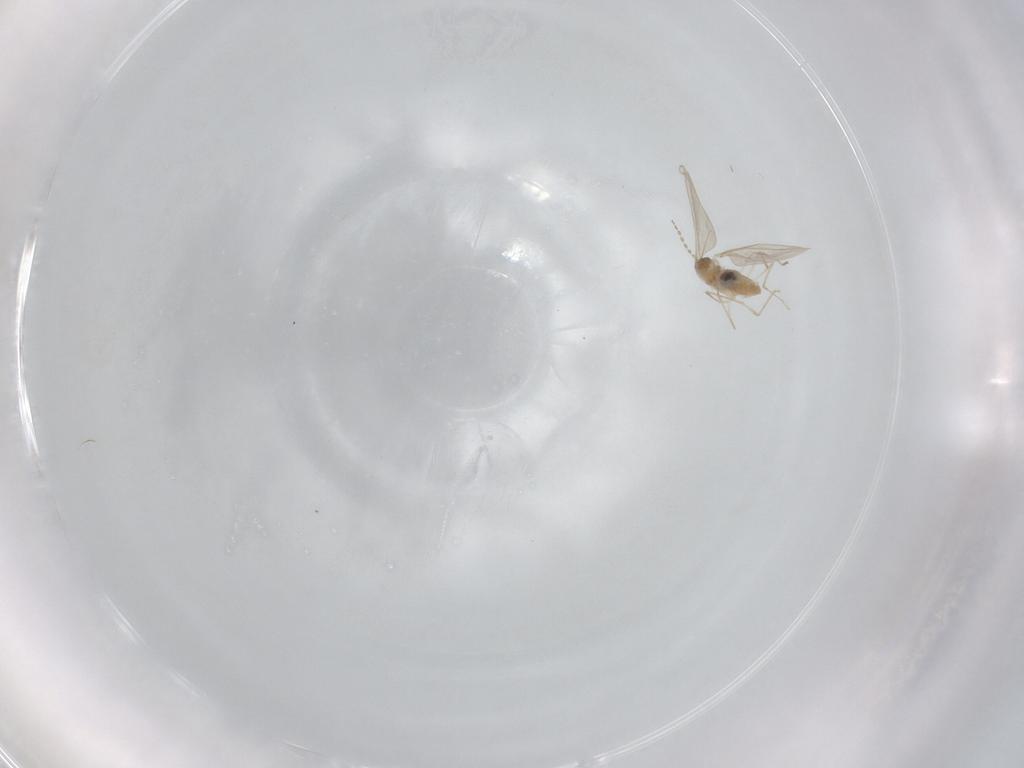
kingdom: Animalia
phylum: Arthropoda
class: Insecta
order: Diptera
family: Cecidomyiidae
